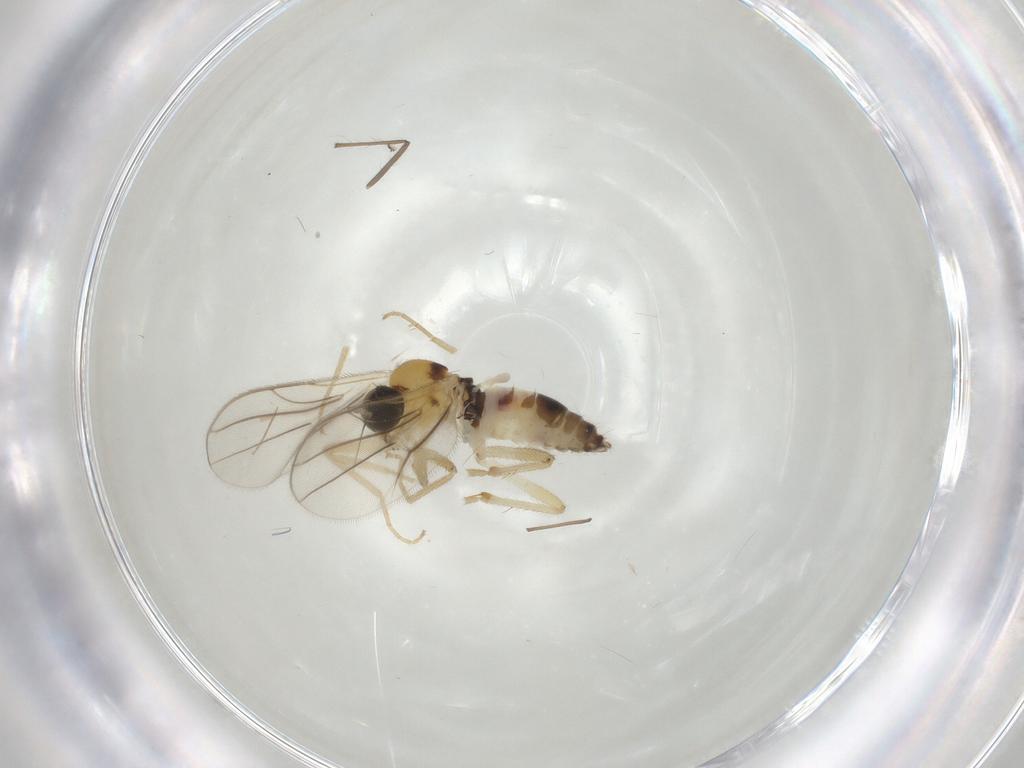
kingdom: Animalia
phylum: Arthropoda
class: Insecta
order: Diptera
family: Hybotidae
